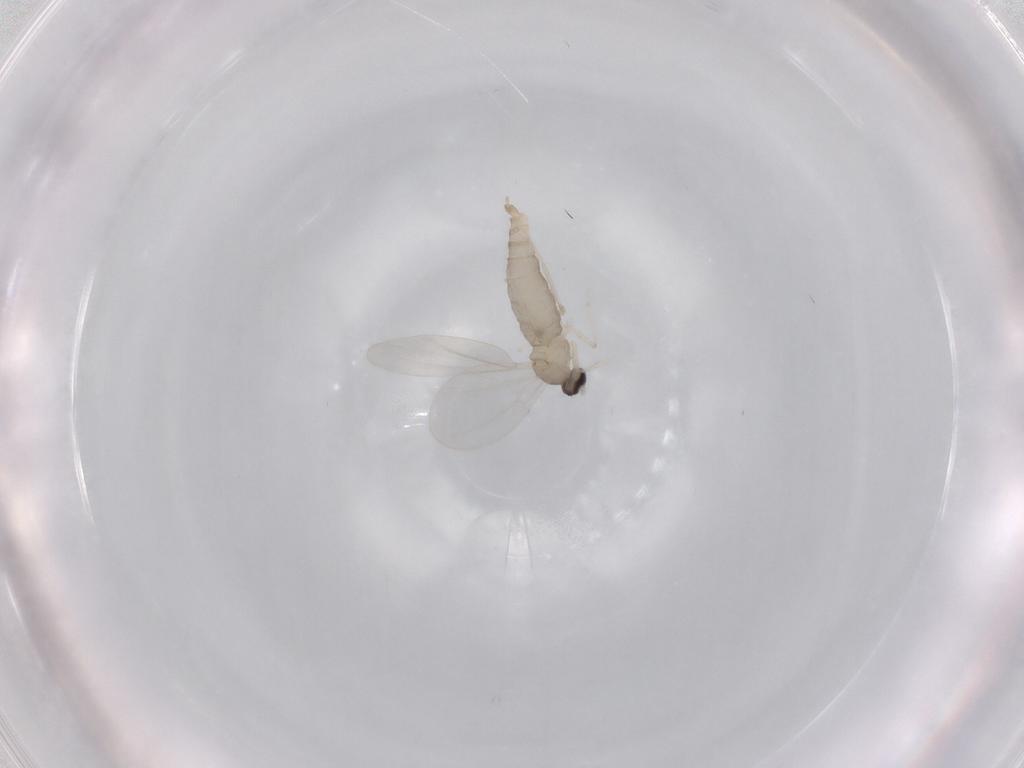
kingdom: Animalia
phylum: Arthropoda
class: Insecta
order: Diptera
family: Cecidomyiidae
